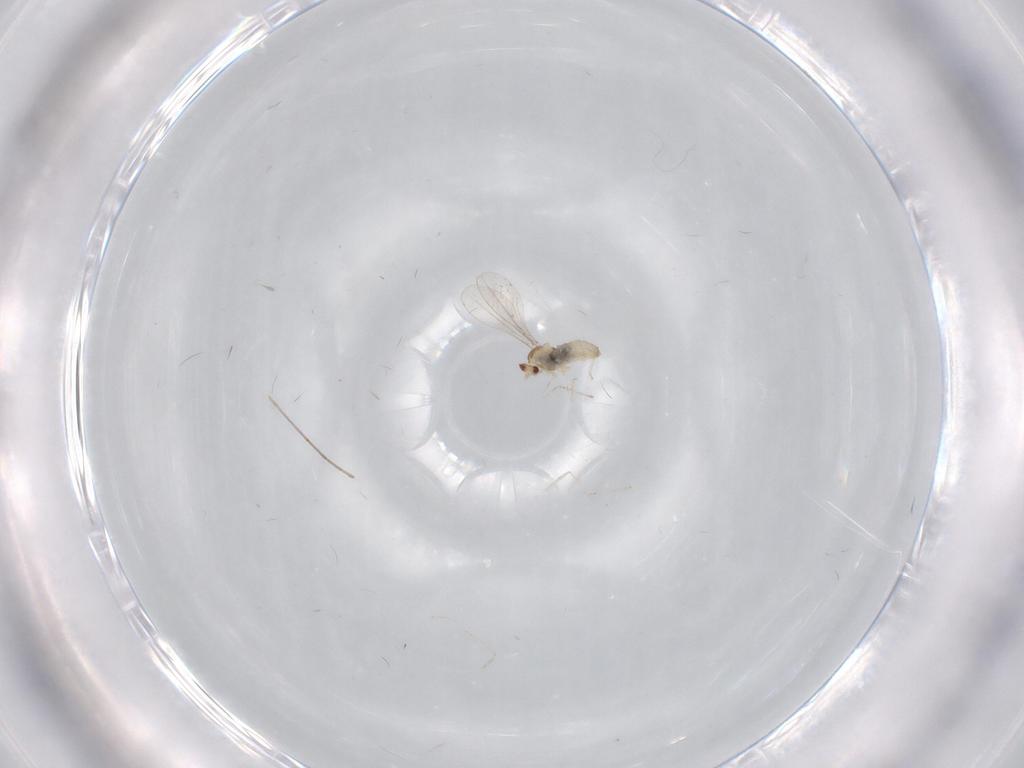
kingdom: Animalia
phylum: Arthropoda
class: Insecta
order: Diptera
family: Cecidomyiidae
